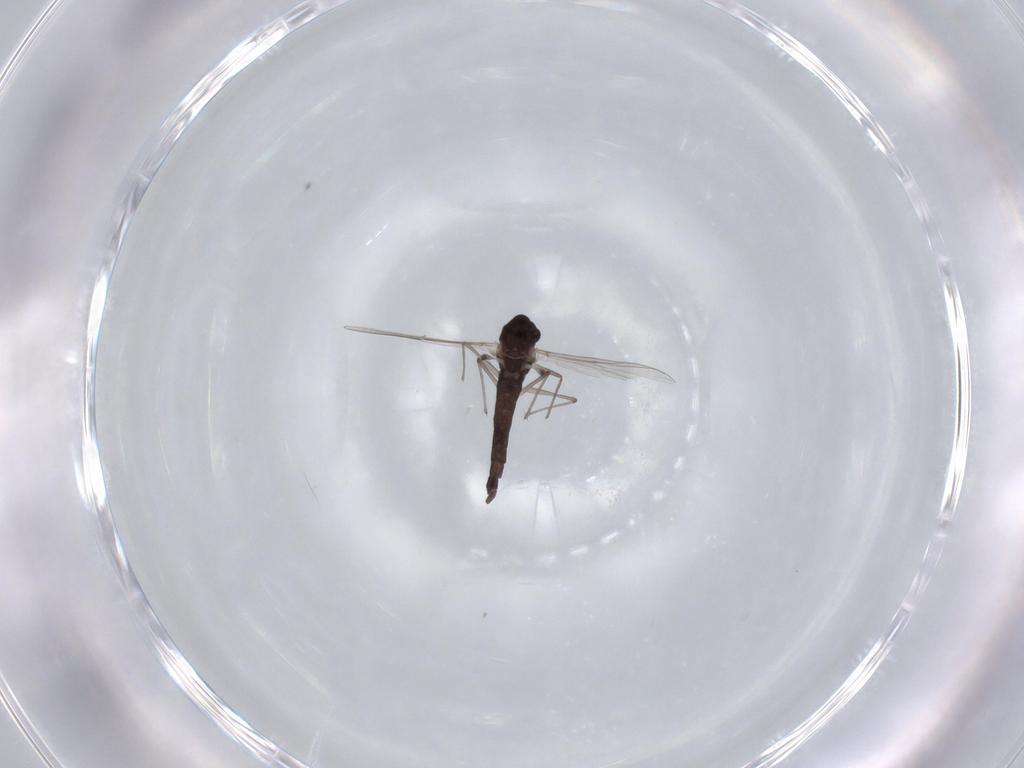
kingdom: Animalia
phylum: Arthropoda
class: Insecta
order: Diptera
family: Chironomidae
